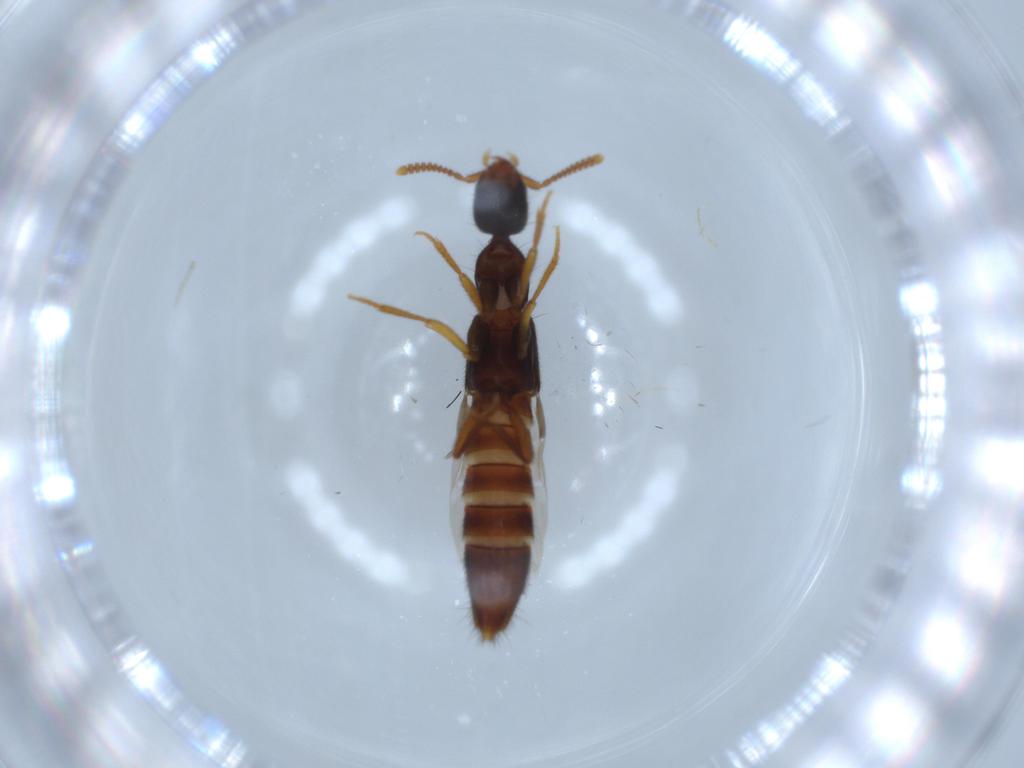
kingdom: Animalia
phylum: Arthropoda
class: Insecta
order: Coleoptera
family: Staphylinidae
